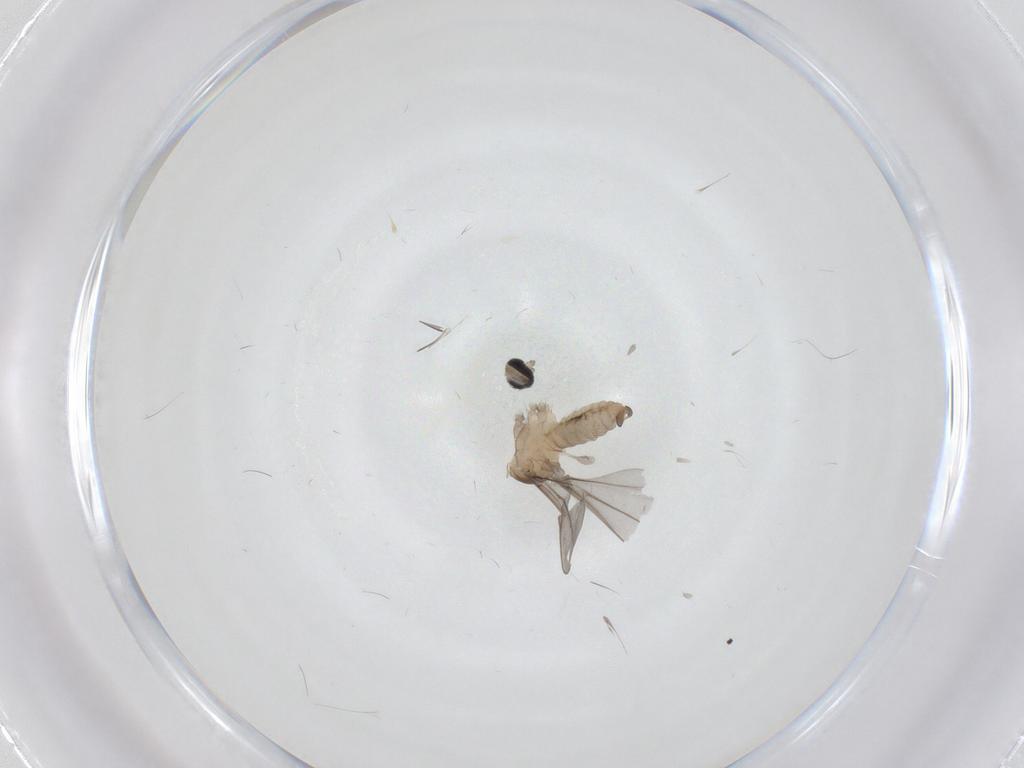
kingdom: Animalia
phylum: Arthropoda
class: Insecta
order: Diptera
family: Cecidomyiidae
